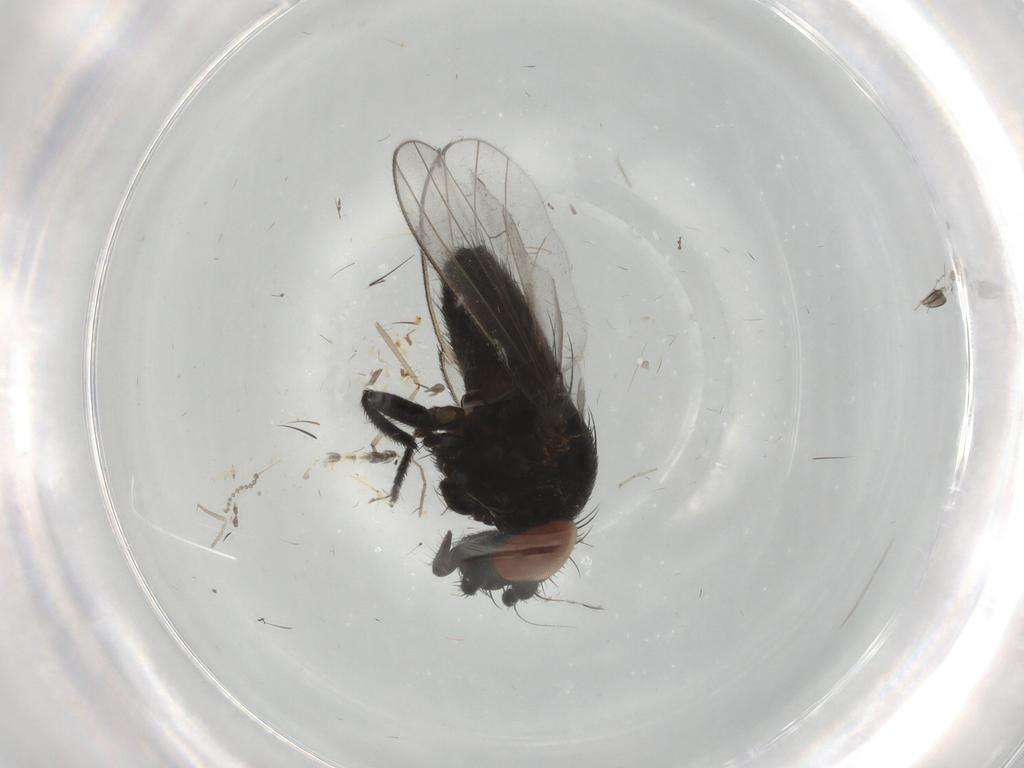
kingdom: Animalia
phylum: Arthropoda
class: Insecta
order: Diptera
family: Milichiidae
